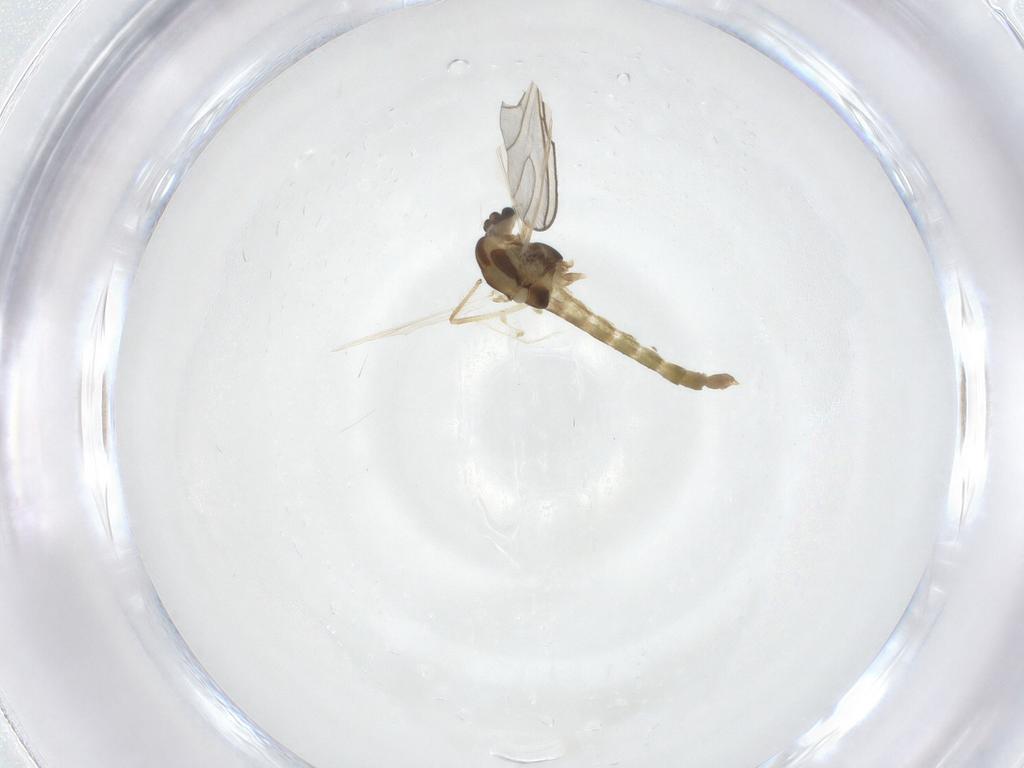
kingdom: Animalia
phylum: Arthropoda
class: Insecta
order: Diptera
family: Chironomidae
